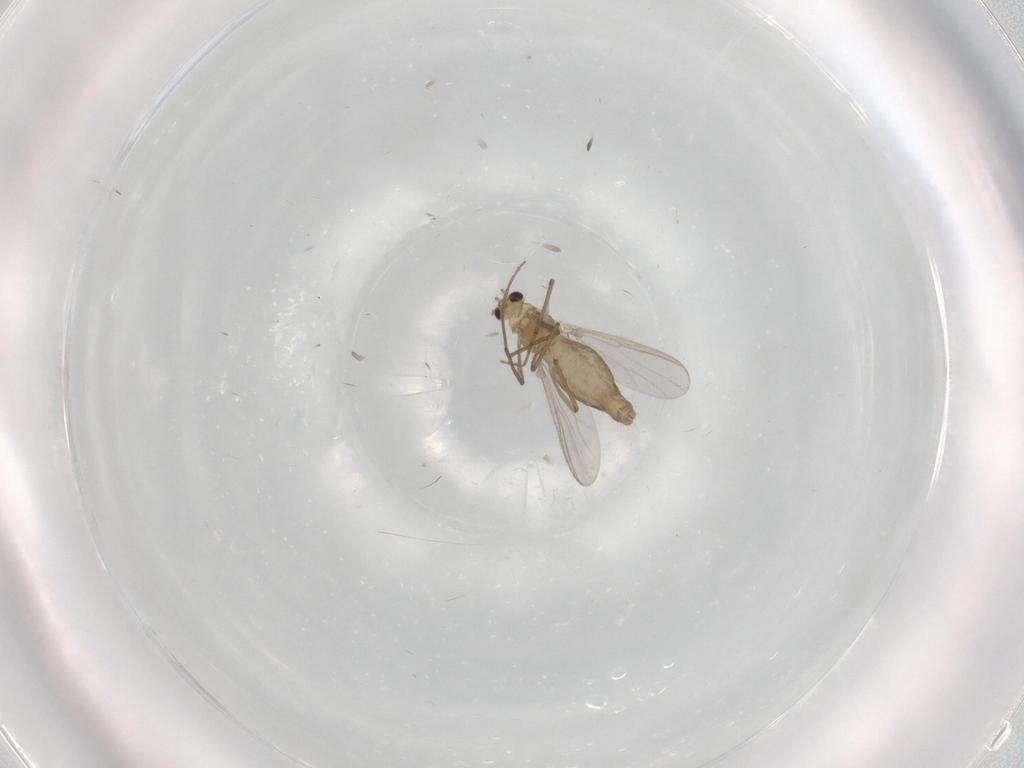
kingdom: Animalia
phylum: Arthropoda
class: Insecta
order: Diptera
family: Chironomidae
